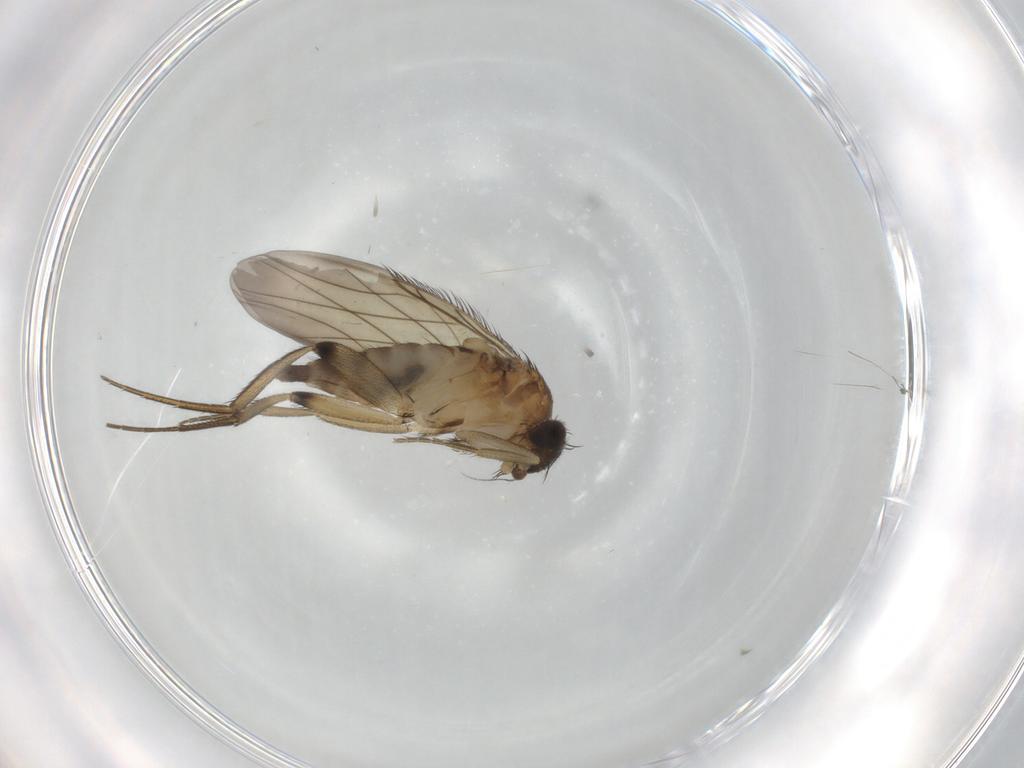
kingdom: Animalia
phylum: Arthropoda
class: Insecta
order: Diptera
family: Phoridae
